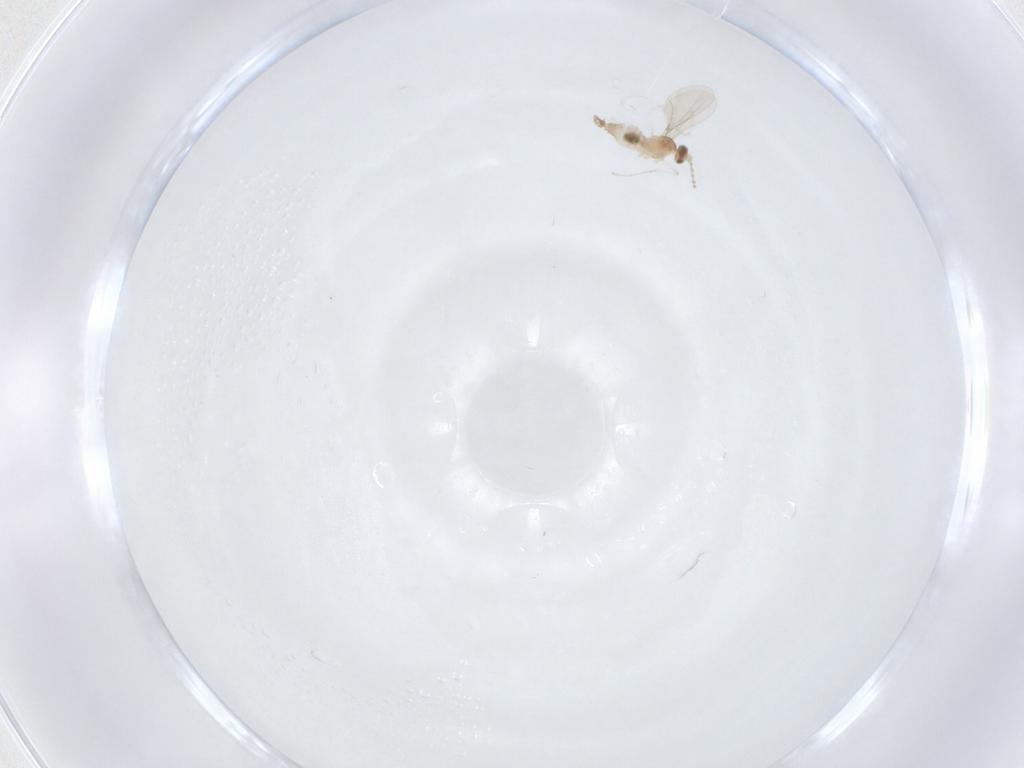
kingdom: Animalia
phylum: Arthropoda
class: Insecta
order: Diptera
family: Cecidomyiidae
